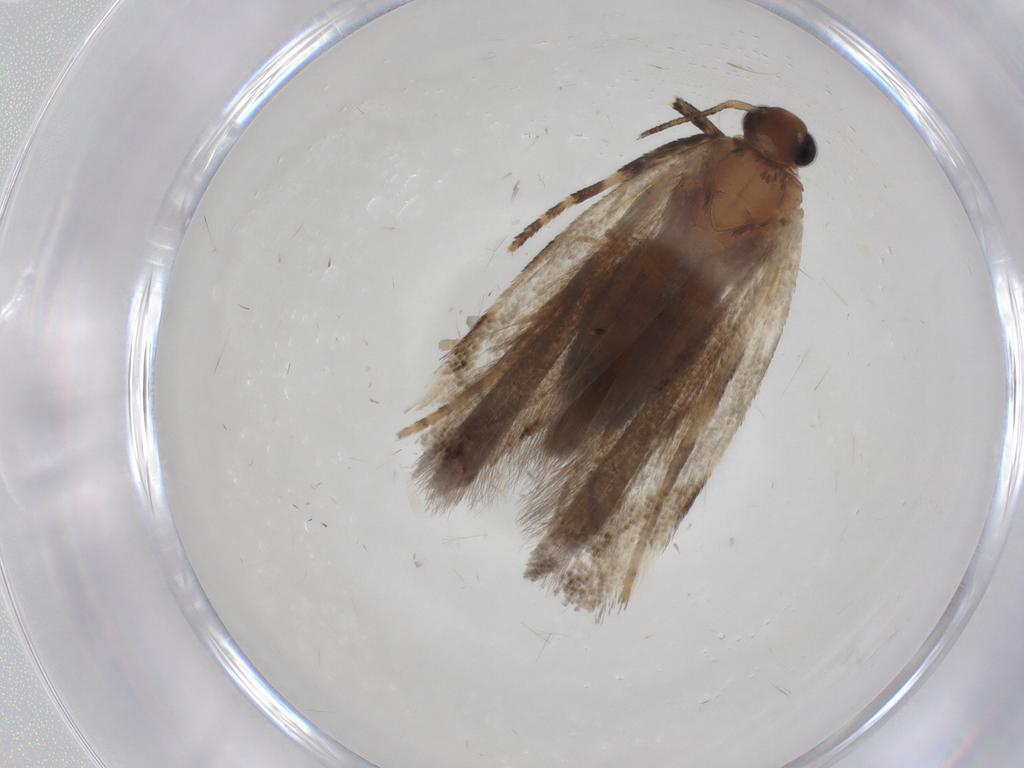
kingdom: Animalia
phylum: Arthropoda
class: Insecta
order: Lepidoptera
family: Gelechiidae
